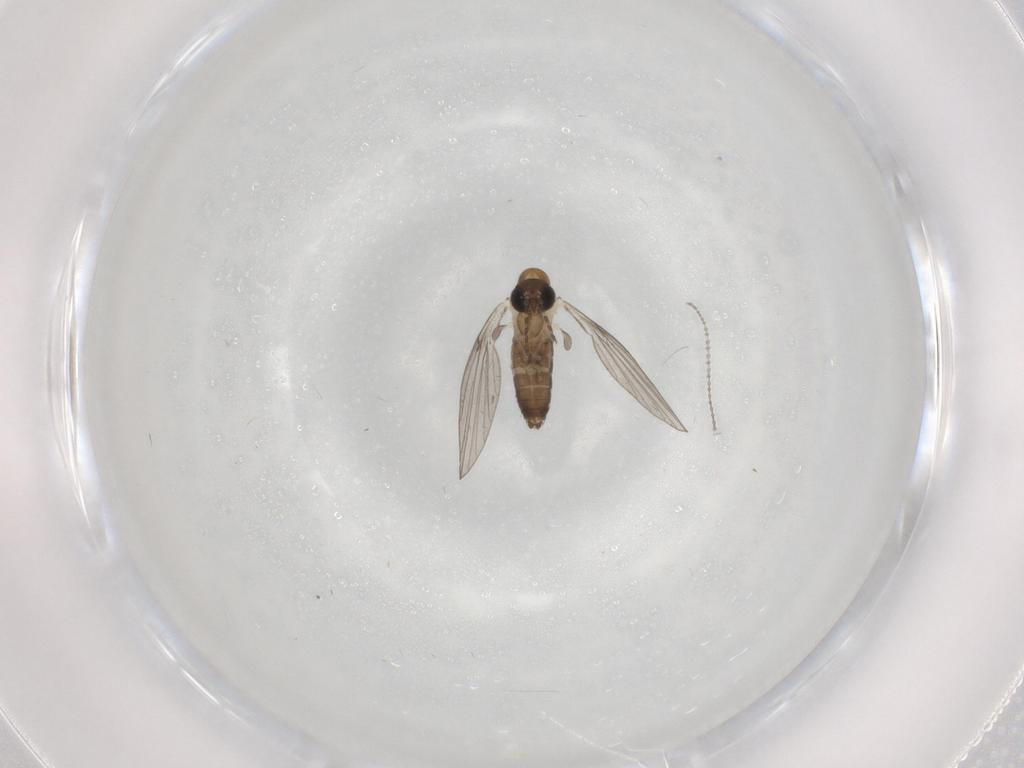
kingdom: Animalia
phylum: Arthropoda
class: Insecta
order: Diptera
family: Psychodidae
